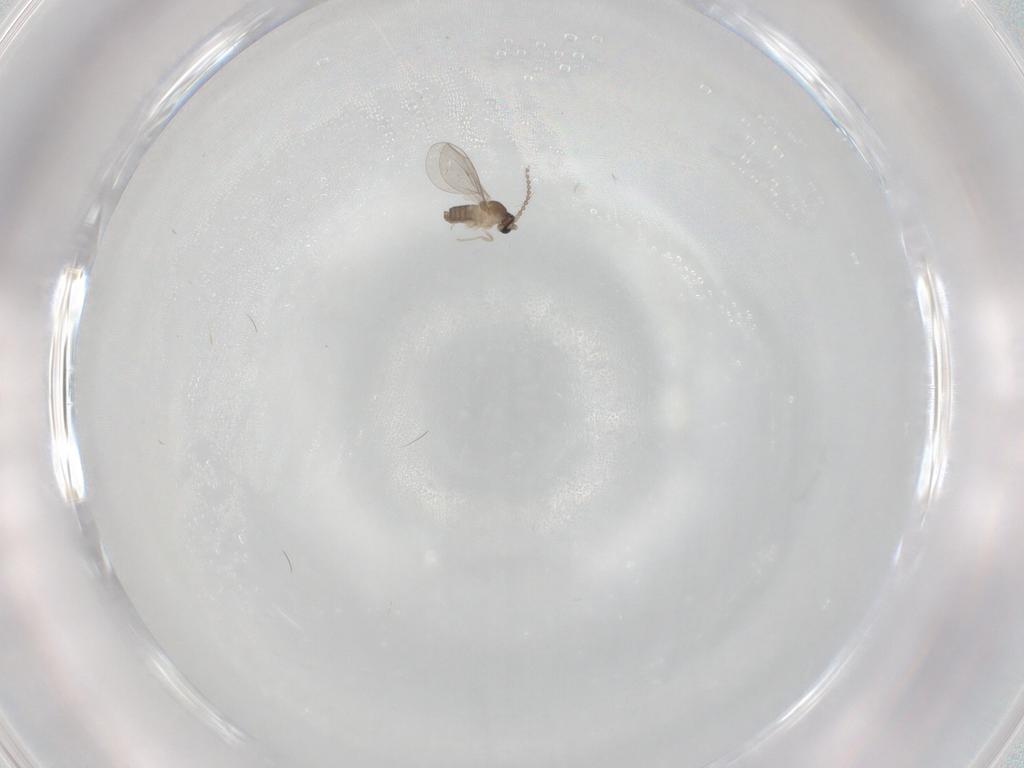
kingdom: Animalia
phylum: Arthropoda
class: Insecta
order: Diptera
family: Cecidomyiidae
